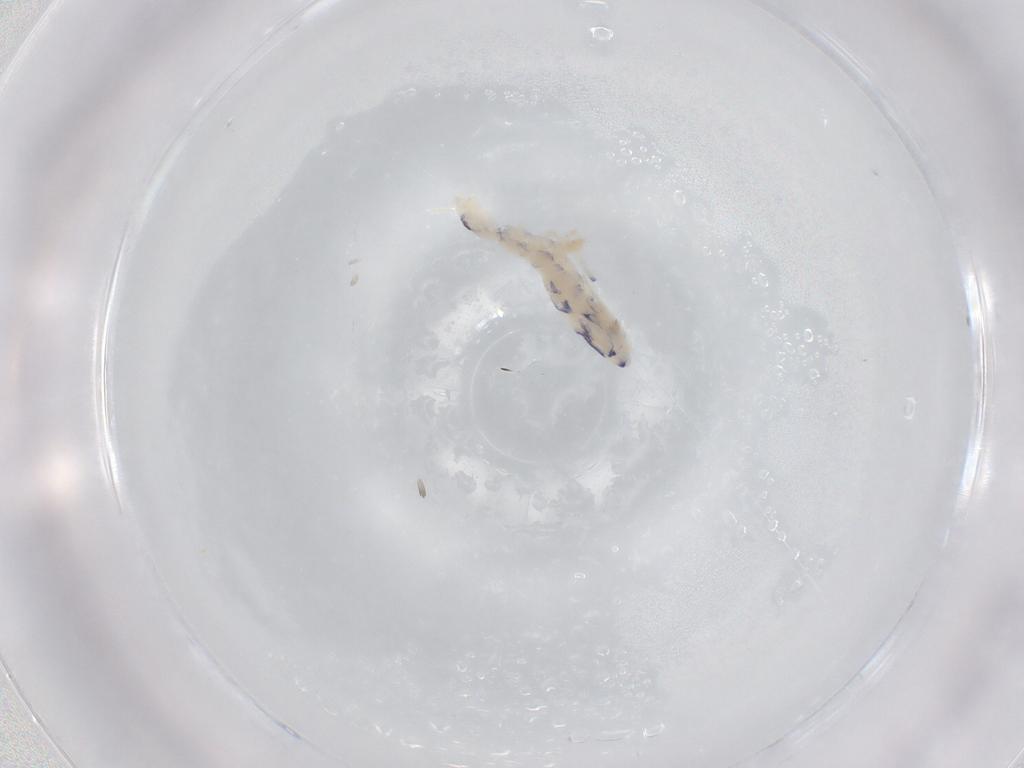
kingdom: Animalia
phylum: Arthropoda
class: Collembola
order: Entomobryomorpha
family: Entomobryidae
